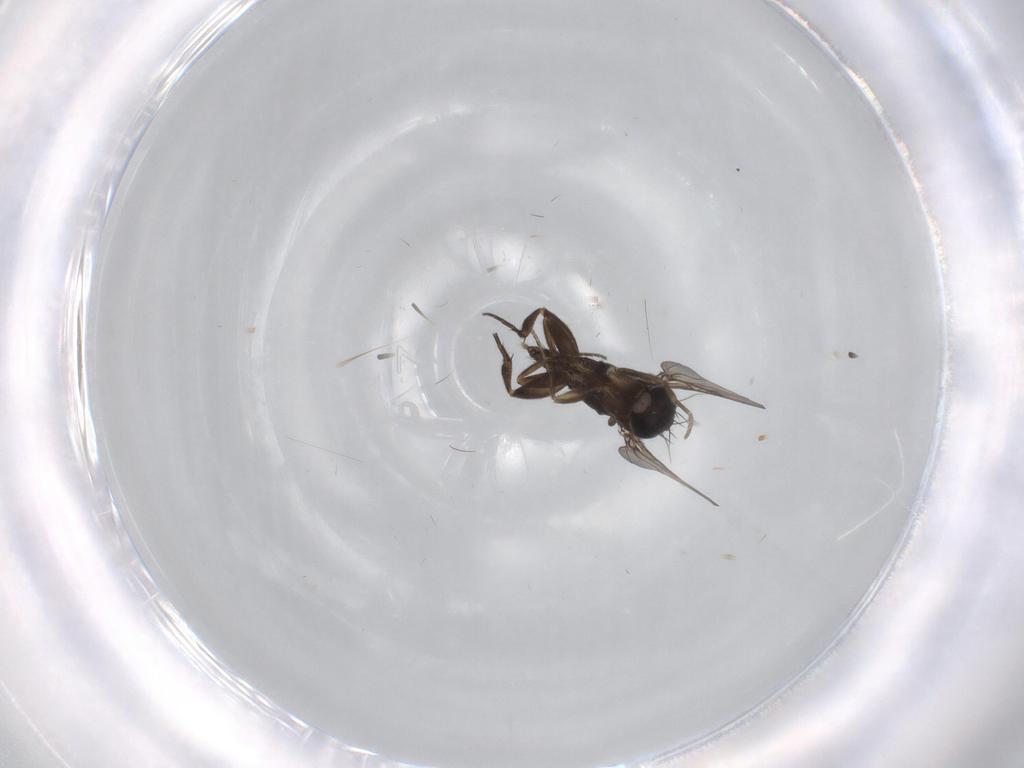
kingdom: Animalia
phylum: Arthropoda
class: Insecta
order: Diptera
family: Phoridae
